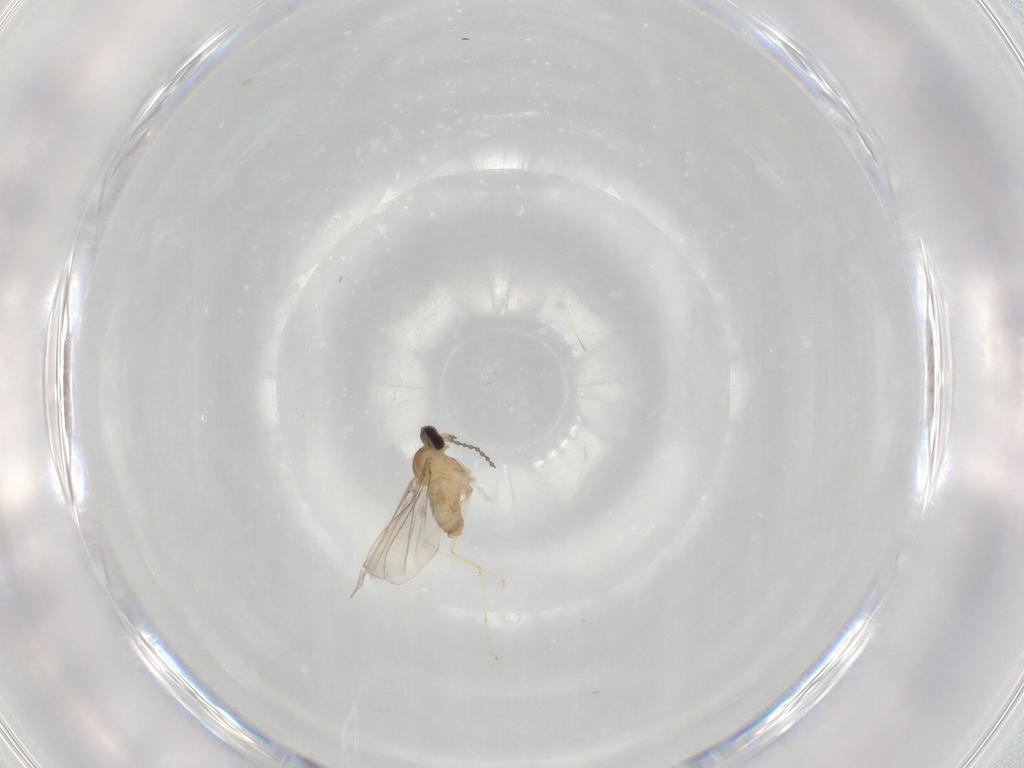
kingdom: Animalia
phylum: Arthropoda
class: Insecta
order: Diptera
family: Cecidomyiidae
